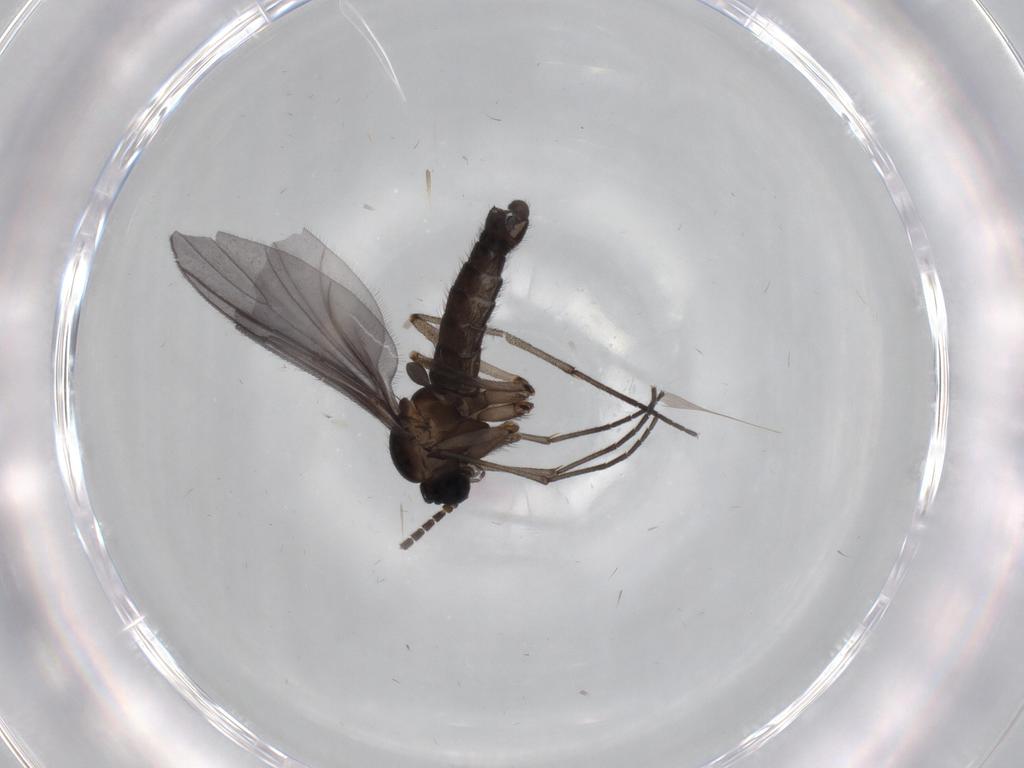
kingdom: Animalia
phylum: Arthropoda
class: Insecta
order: Diptera
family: Sciaridae
